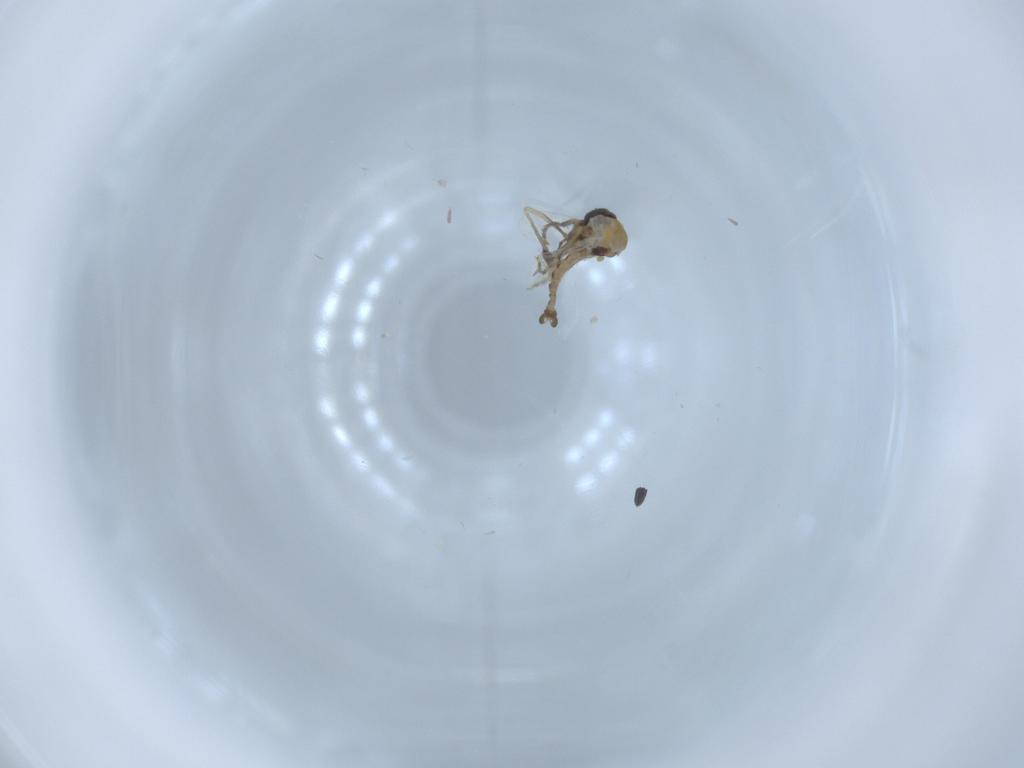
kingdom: Animalia
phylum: Arthropoda
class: Insecta
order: Diptera
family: Ceratopogonidae
